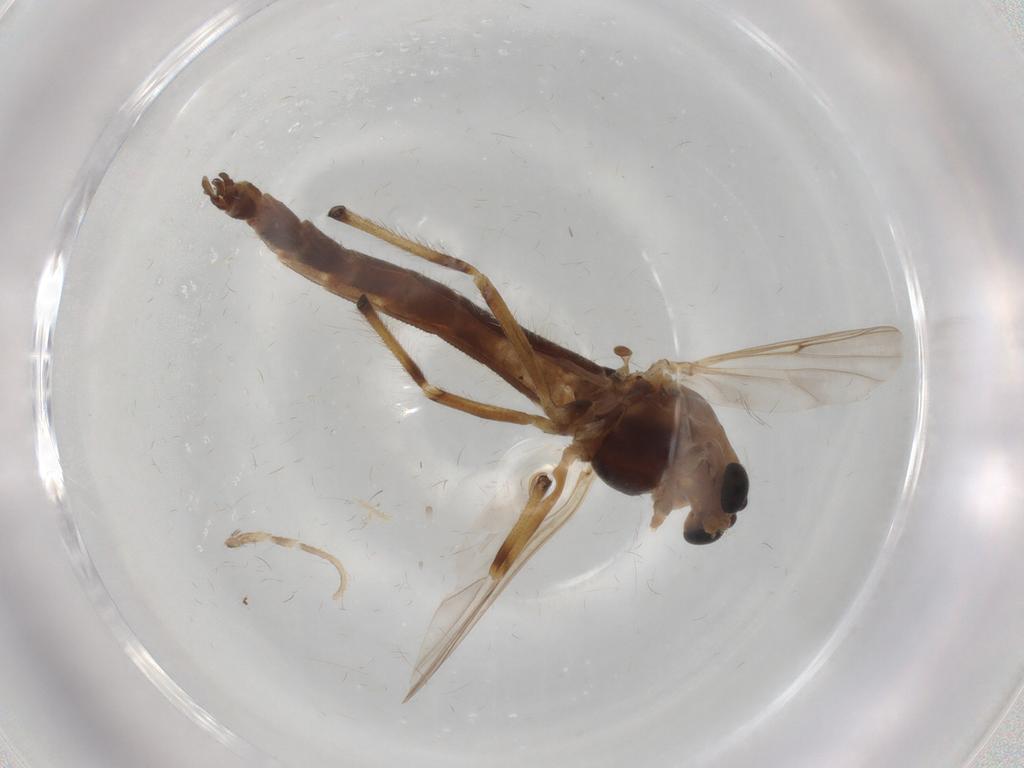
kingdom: Animalia
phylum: Arthropoda
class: Insecta
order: Diptera
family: Chironomidae
